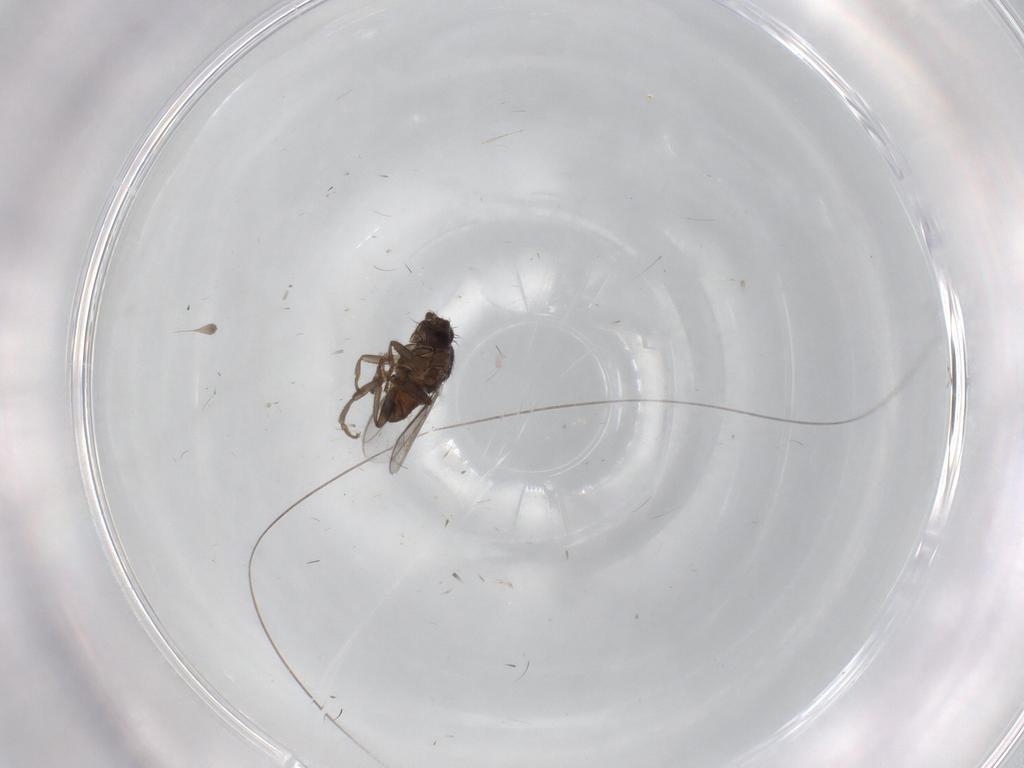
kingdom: Animalia
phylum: Arthropoda
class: Insecta
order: Diptera
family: Sphaeroceridae
